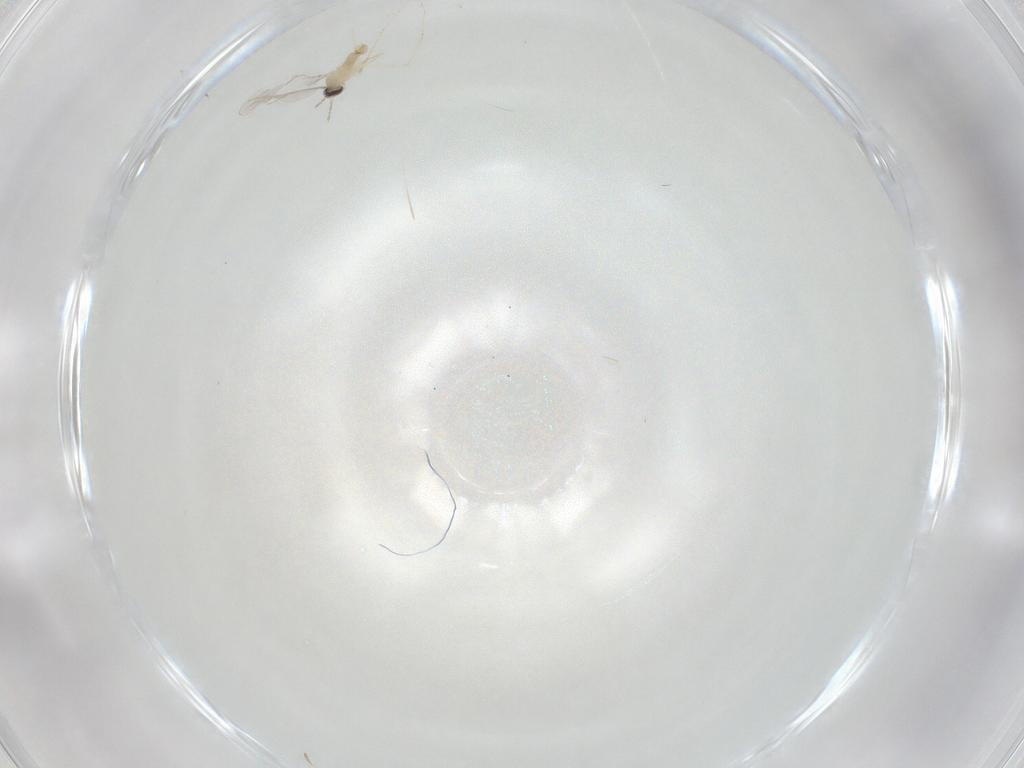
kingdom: Animalia
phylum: Arthropoda
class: Insecta
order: Diptera
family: Cecidomyiidae
